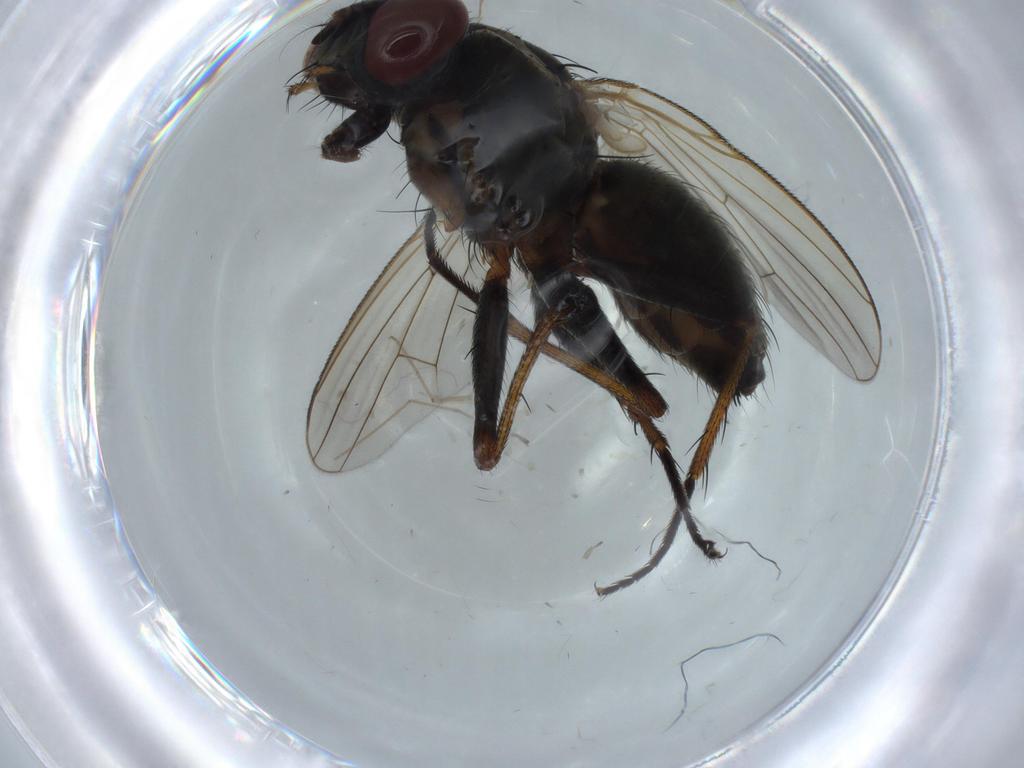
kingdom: Animalia
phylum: Arthropoda
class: Insecta
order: Diptera
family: Muscidae
